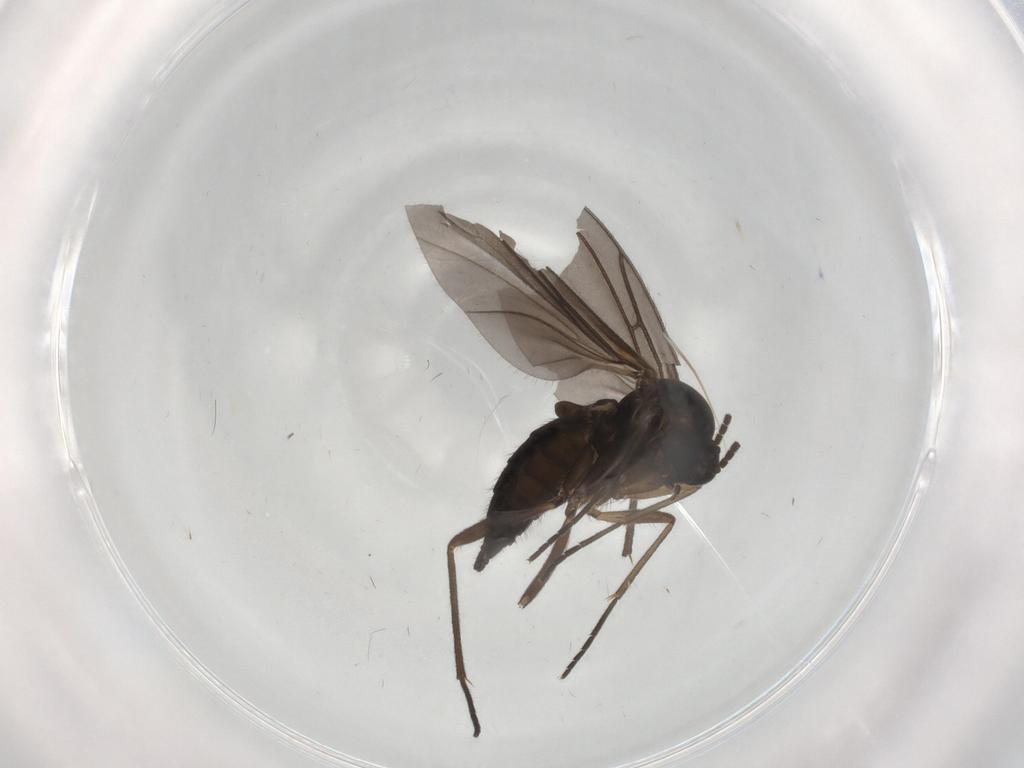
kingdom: Animalia
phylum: Arthropoda
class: Insecta
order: Diptera
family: Sciaridae
